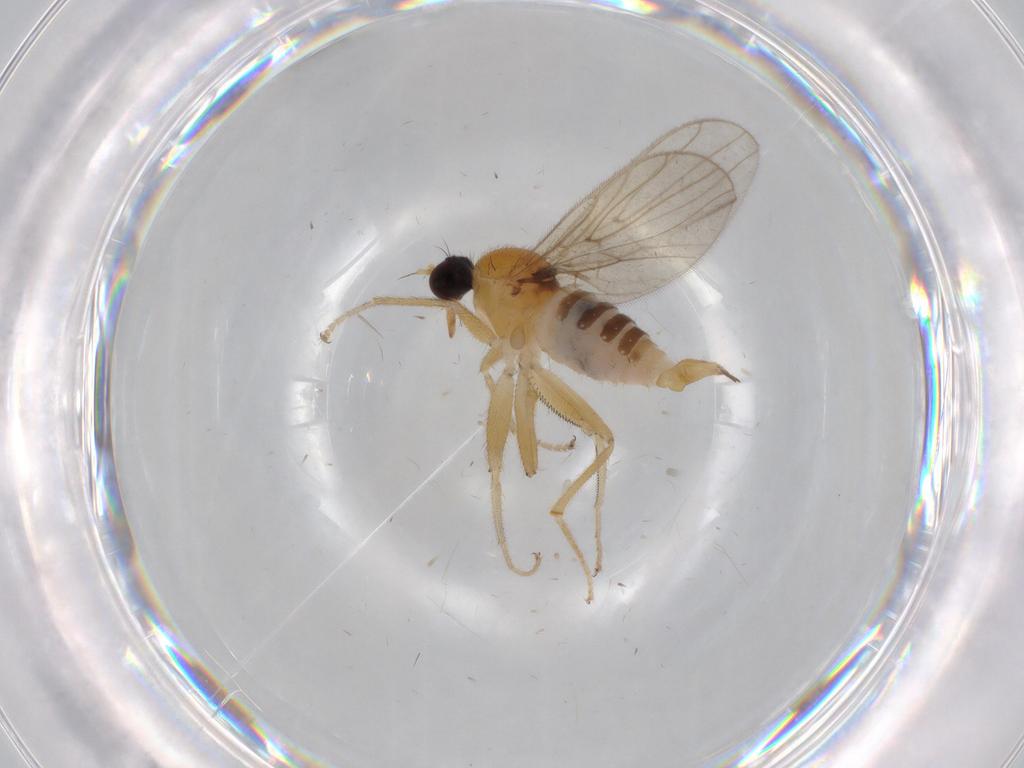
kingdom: Animalia
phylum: Arthropoda
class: Insecta
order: Diptera
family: Hybotidae
